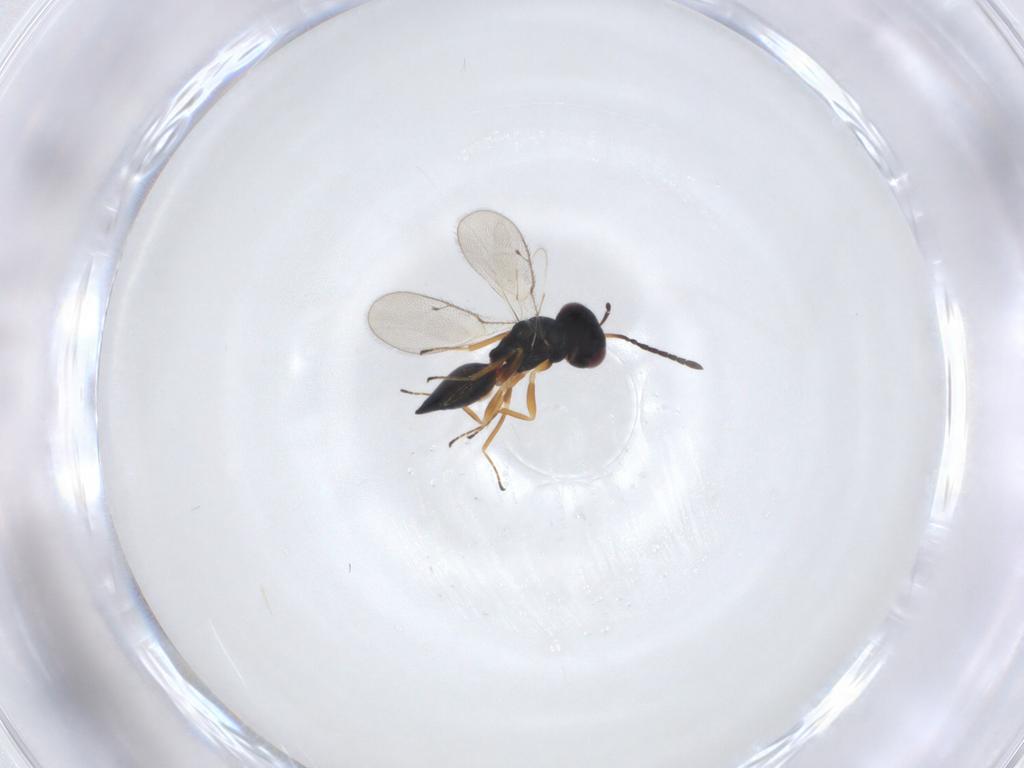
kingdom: Animalia
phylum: Arthropoda
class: Insecta
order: Hymenoptera
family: Pteromalidae
